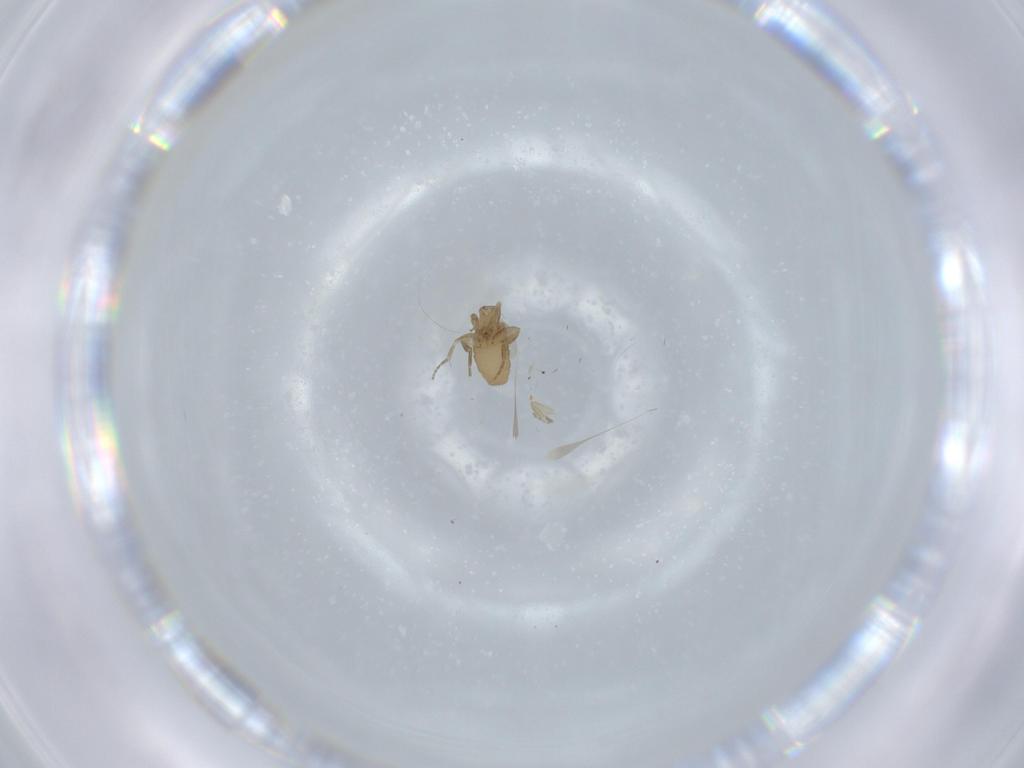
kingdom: Animalia
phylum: Arthropoda
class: Insecta
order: Diptera
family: Phoridae
